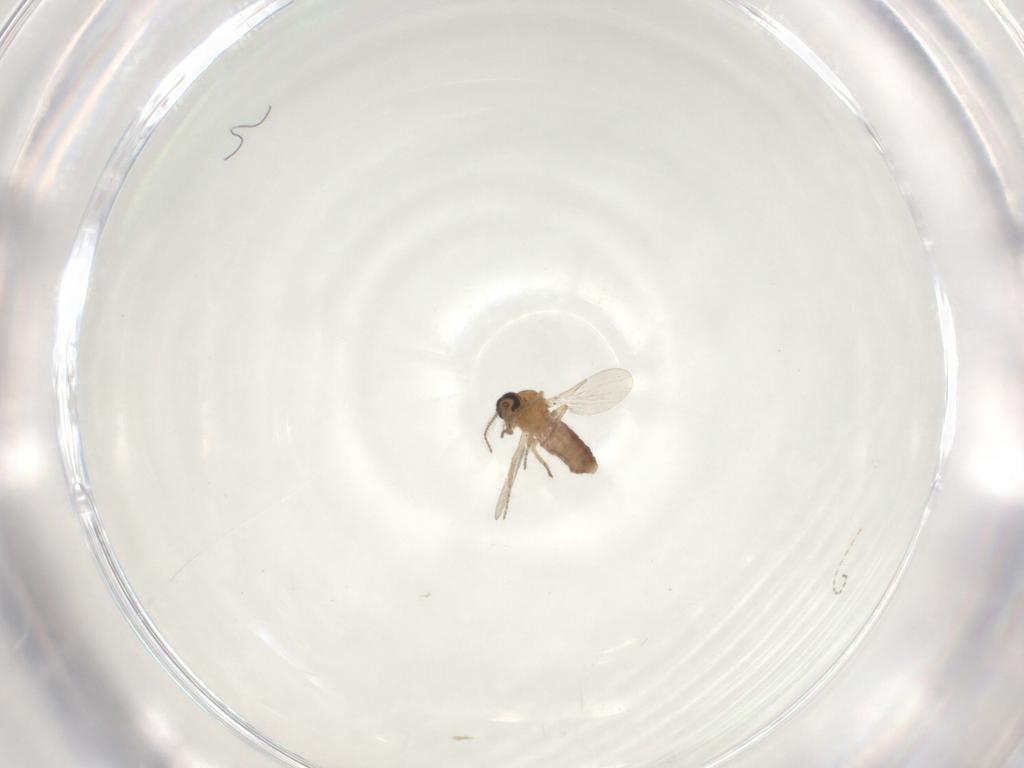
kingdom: Animalia
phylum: Arthropoda
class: Insecta
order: Diptera
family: Cecidomyiidae
